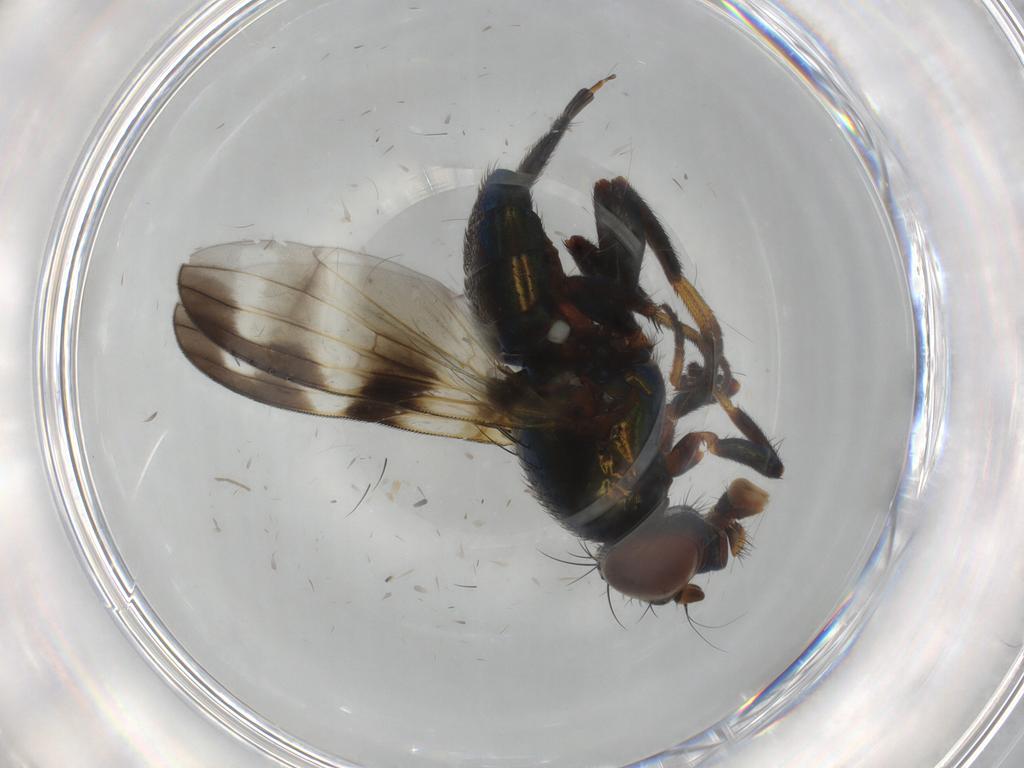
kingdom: Animalia
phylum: Arthropoda
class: Insecta
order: Diptera
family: Ulidiidae
